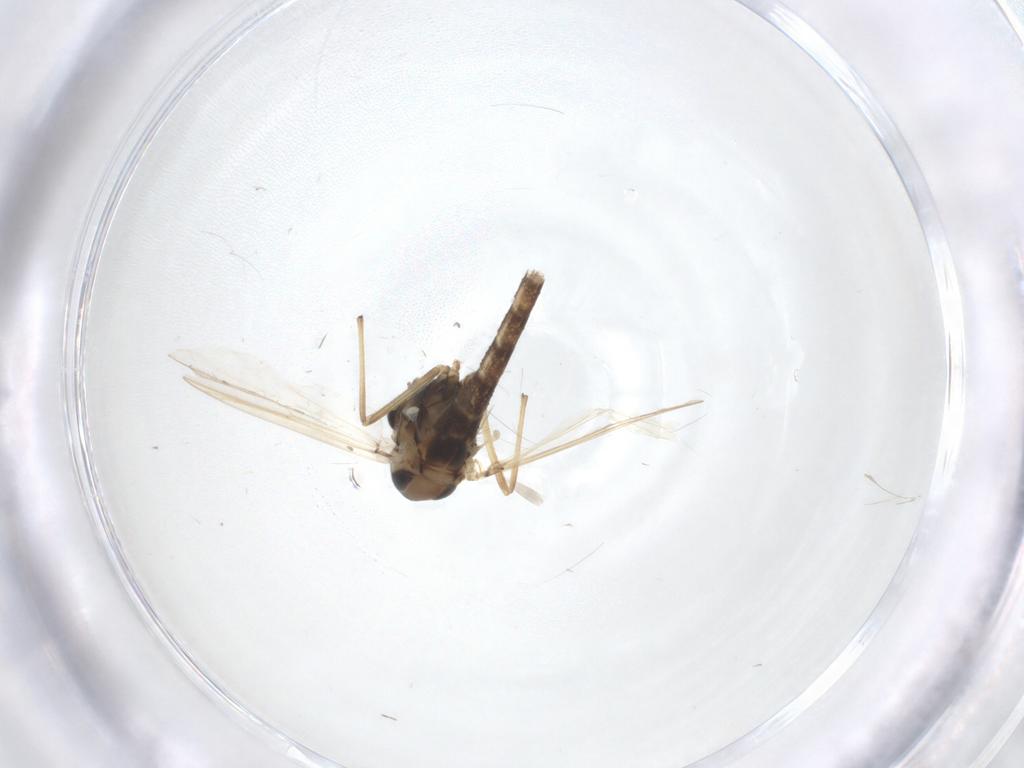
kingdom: Animalia
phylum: Arthropoda
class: Insecta
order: Diptera
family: Chironomidae
